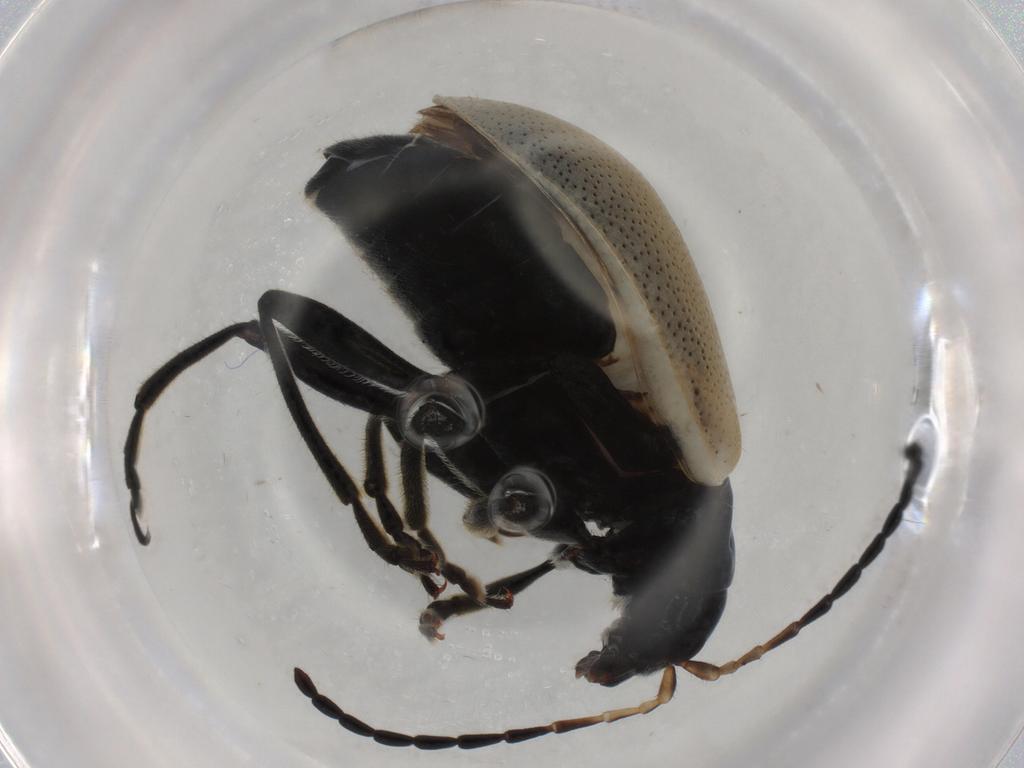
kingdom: Animalia
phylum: Arthropoda
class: Insecta
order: Coleoptera
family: Chrysomelidae
